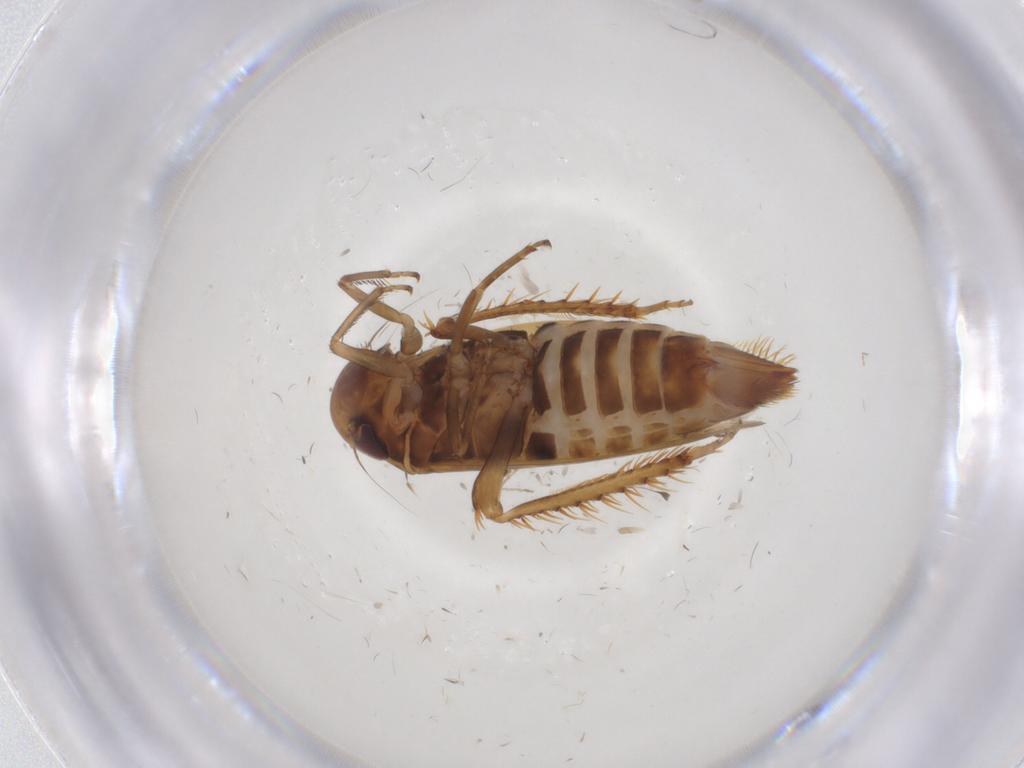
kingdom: Animalia
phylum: Arthropoda
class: Insecta
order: Hemiptera
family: Cicadellidae
